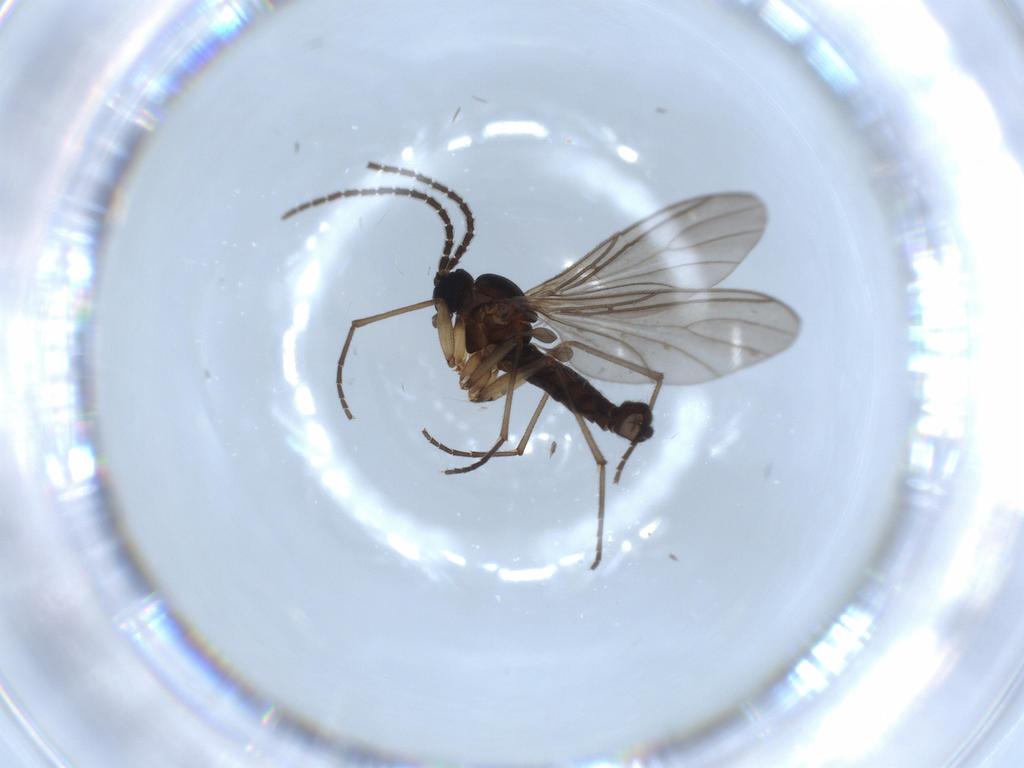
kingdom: Animalia
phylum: Arthropoda
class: Insecta
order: Diptera
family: Sciaridae
